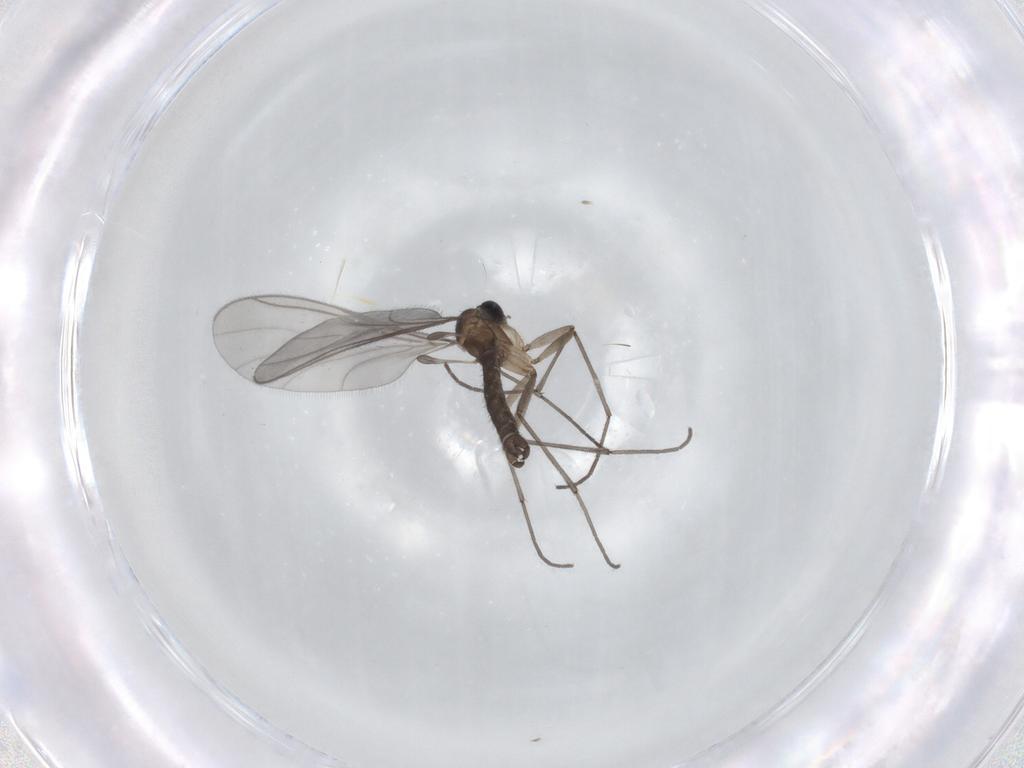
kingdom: Animalia
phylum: Arthropoda
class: Insecta
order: Diptera
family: Sciaridae
